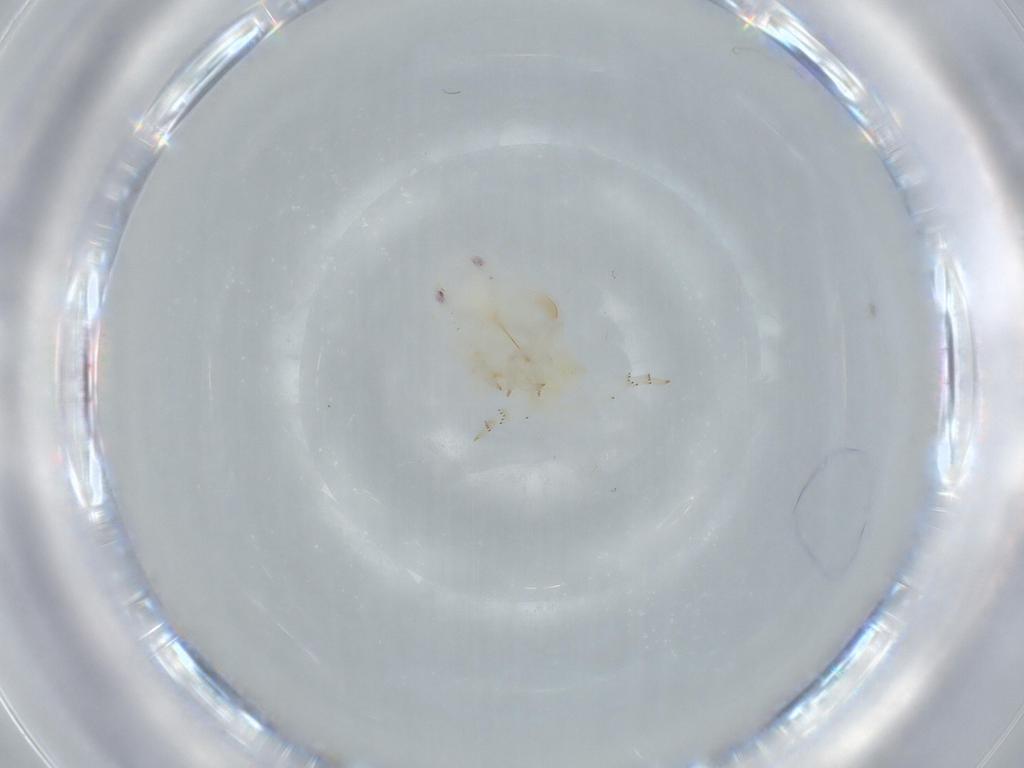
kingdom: Animalia
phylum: Arthropoda
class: Insecta
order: Hemiptera
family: Flatidae
